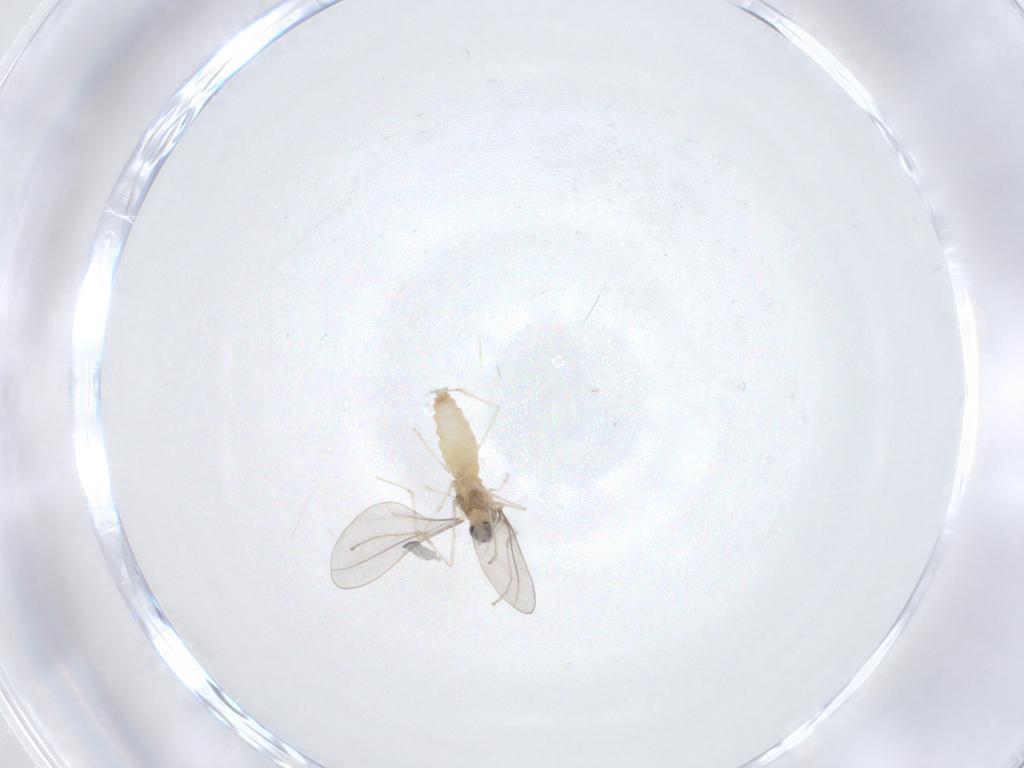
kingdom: Animalia
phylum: Arthropoda
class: Insecta
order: Diptera
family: Cecidomyiidae
